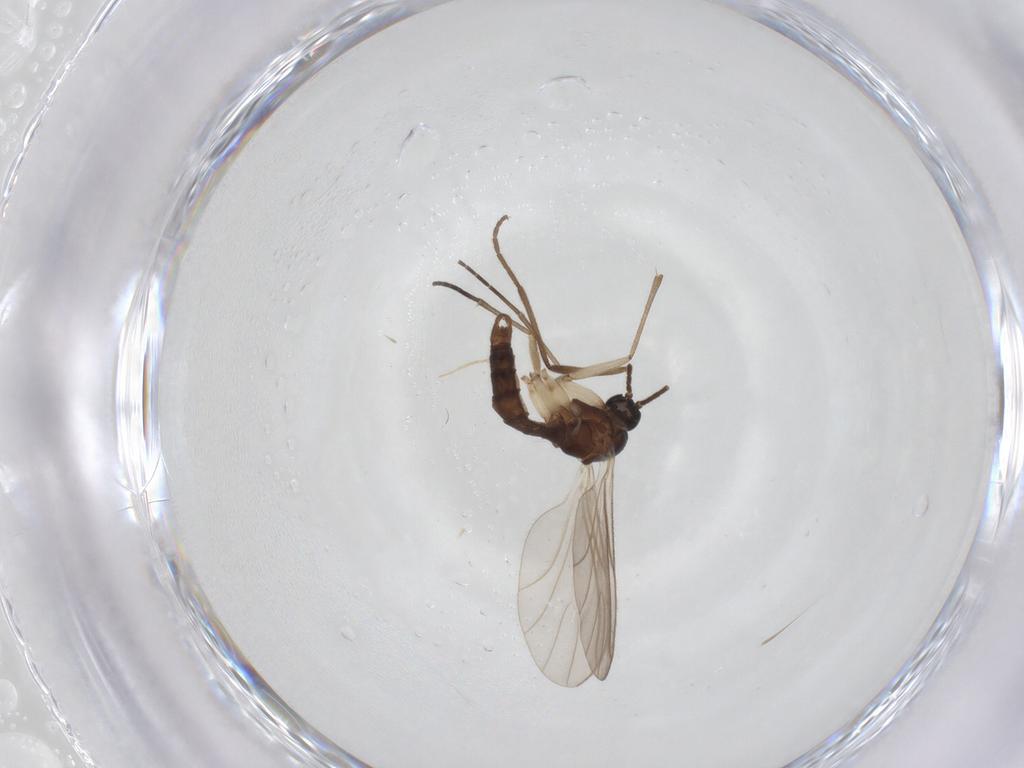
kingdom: Animalia
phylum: Arthropoda
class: Insecta
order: Diptera
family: Sciaridae
